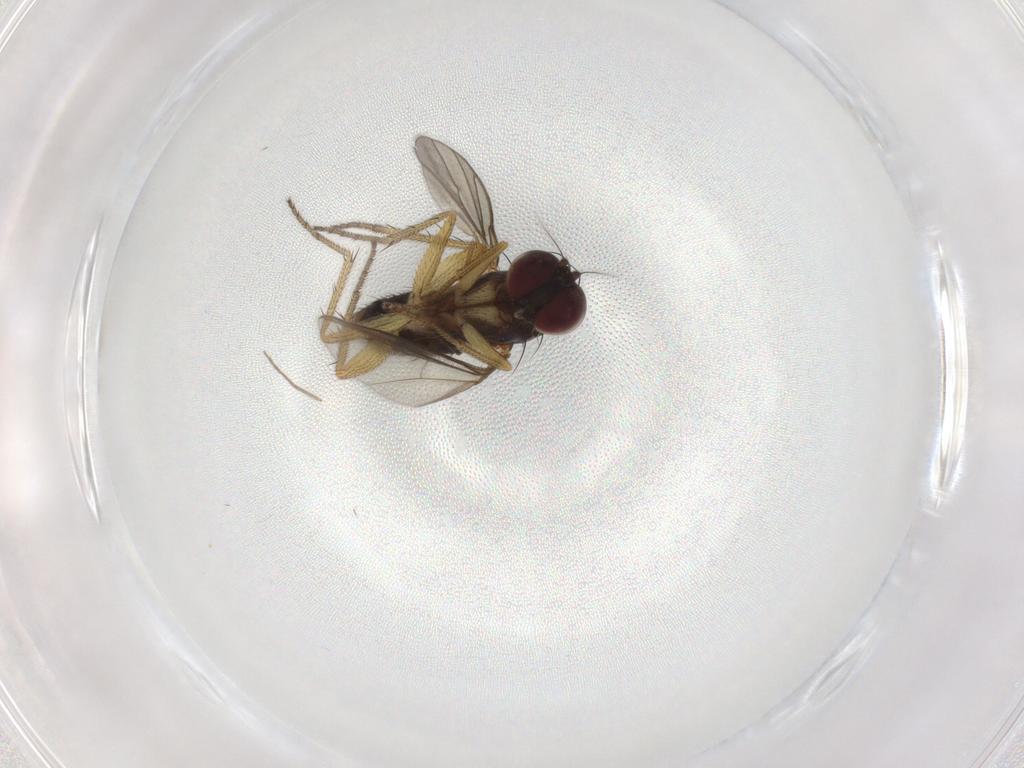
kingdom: Animalia
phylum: Arthropoda
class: Insecta
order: Diptera
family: Chironomidae
